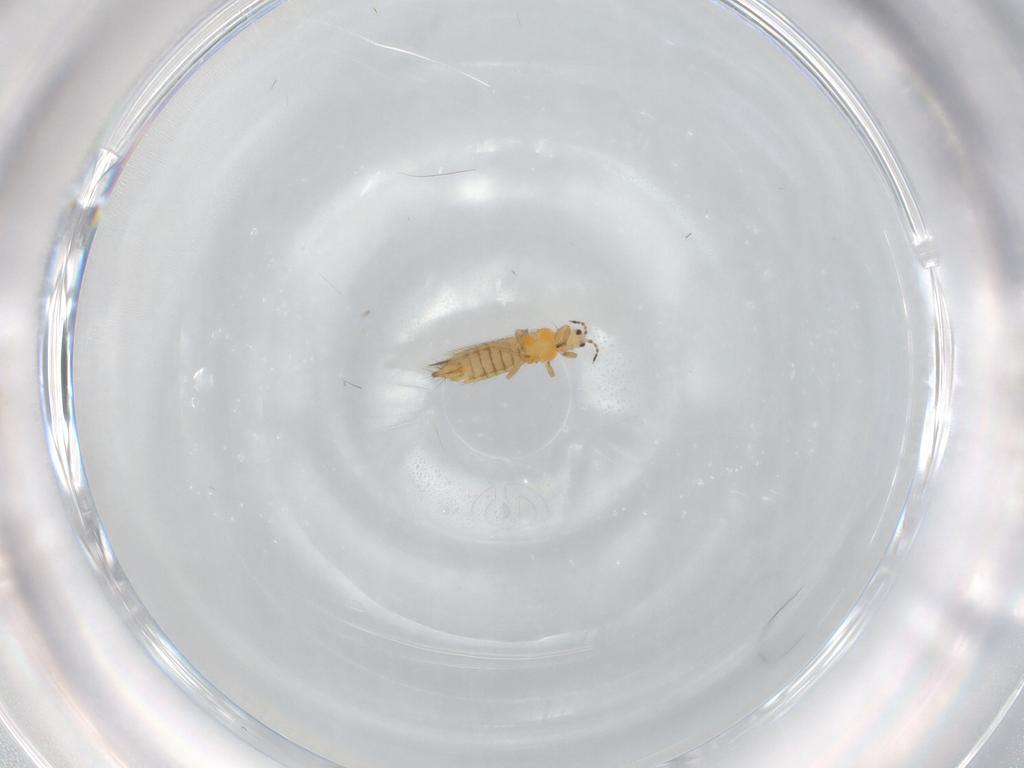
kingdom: Animalia
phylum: Arthropoda
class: Insecta
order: Thysanoptera
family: Thripidae
